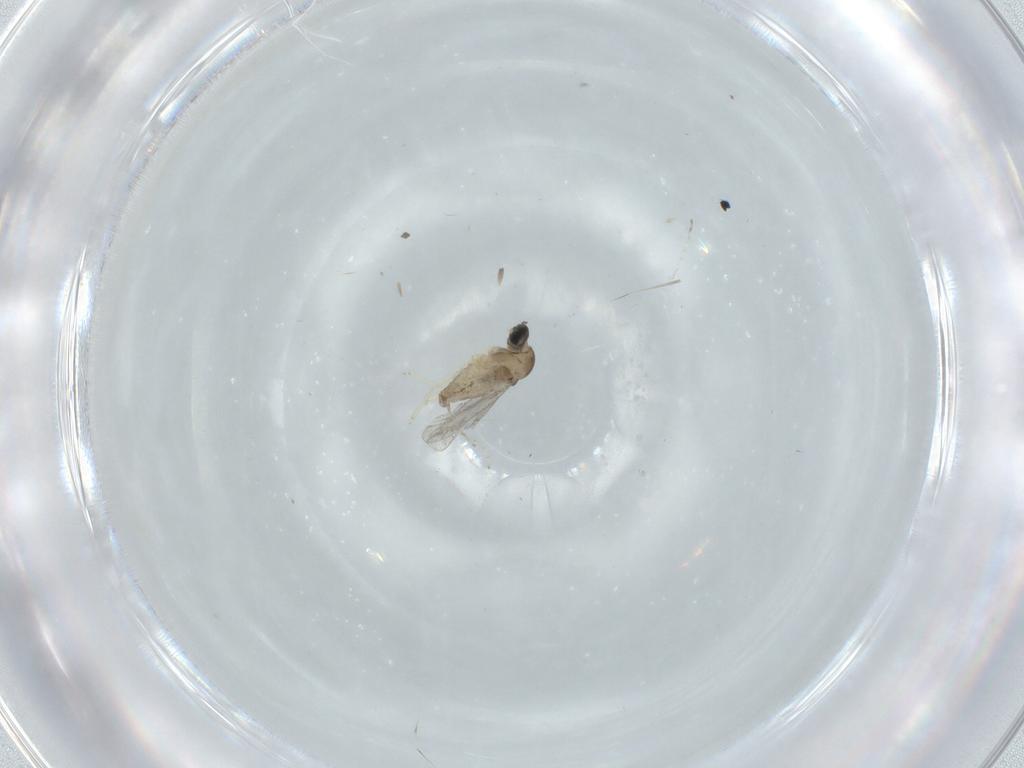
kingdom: Animalia
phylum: Arthropoda
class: Insecta
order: Diptera
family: Cecidomyiidae
